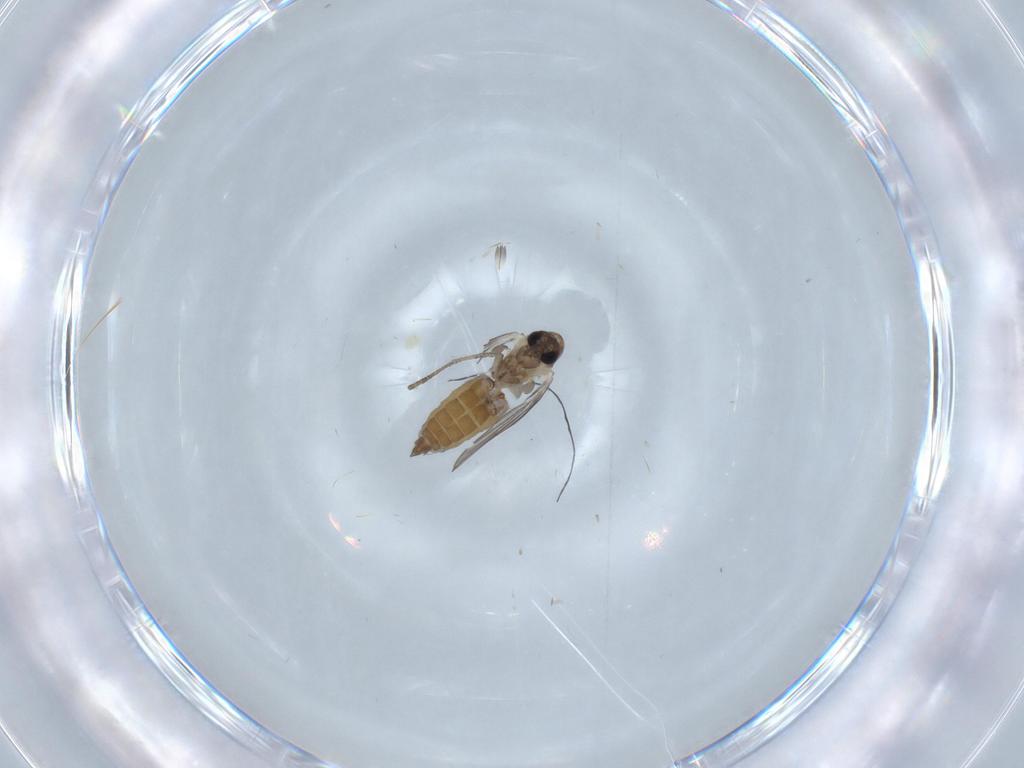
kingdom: Animalia
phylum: Arthropoda
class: Insecta
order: Diptera
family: Chironomidae
